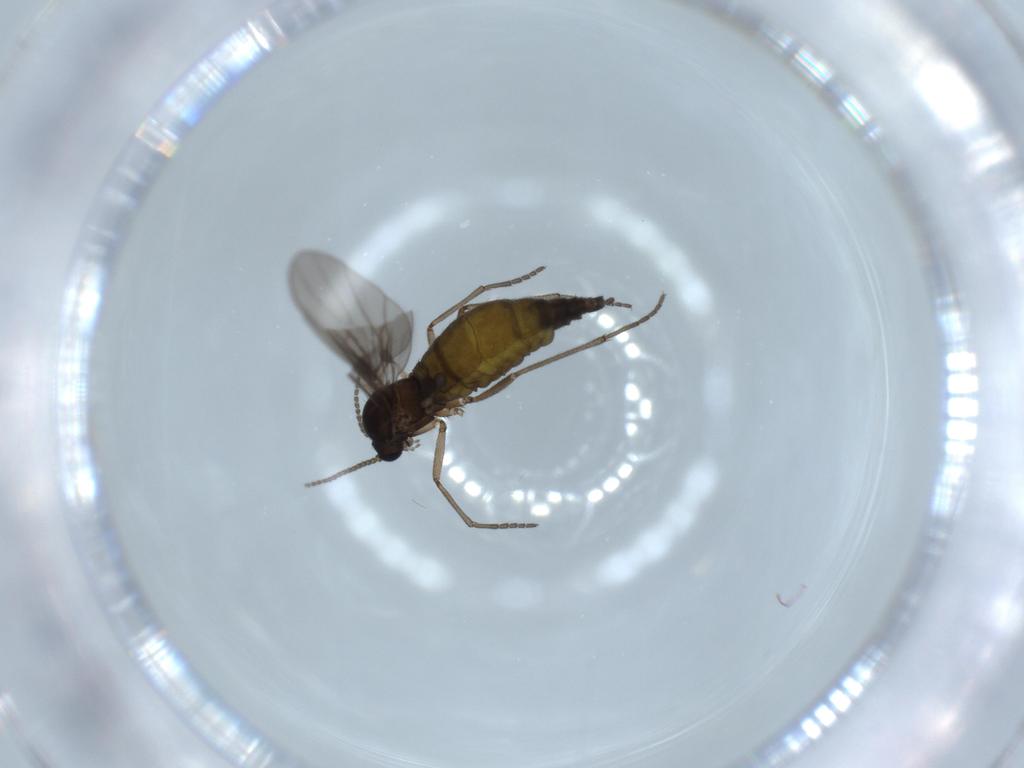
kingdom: Animalia
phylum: Arthropoda
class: Insecta
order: Diptera
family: Sciaridae
